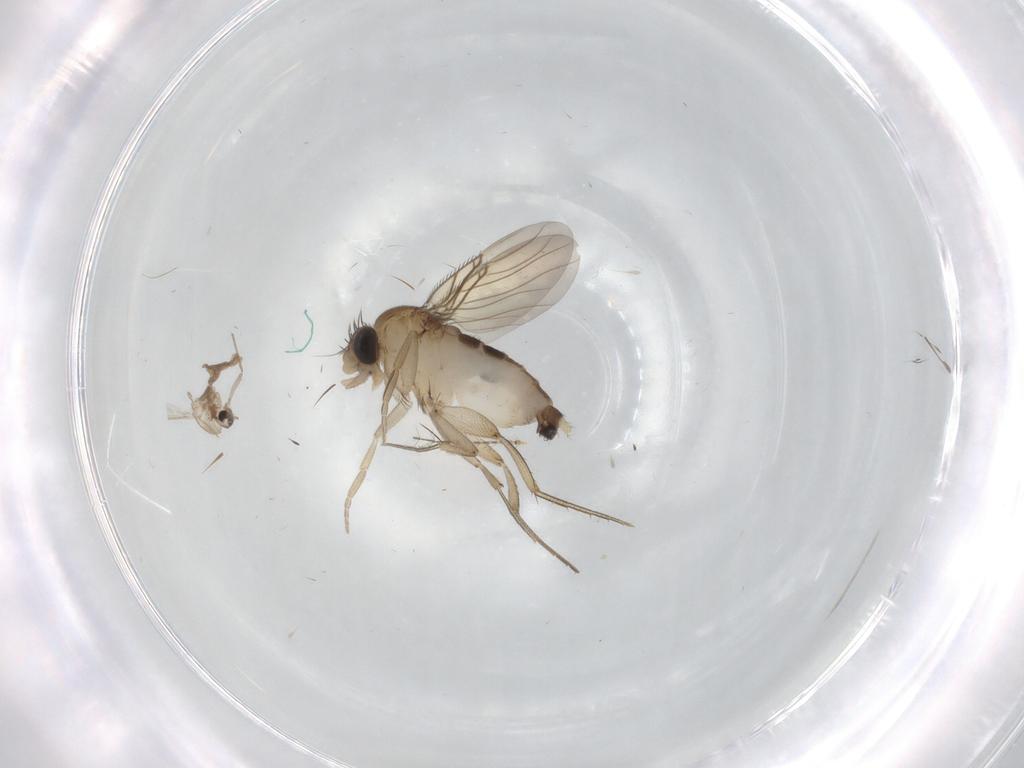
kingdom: Animalia
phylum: Arthropoda
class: Insecta
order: Diptera
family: Phoridae
